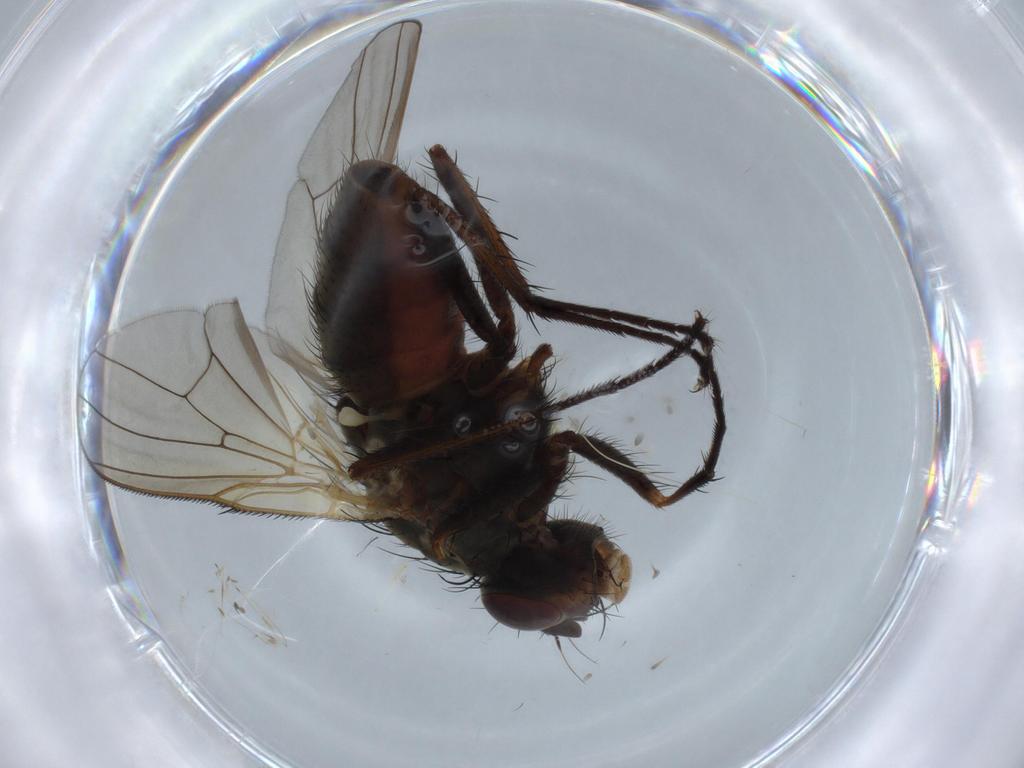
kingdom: Animalia
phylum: Arthropoda
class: Insecta
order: Diptera
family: Anthomyiidae
